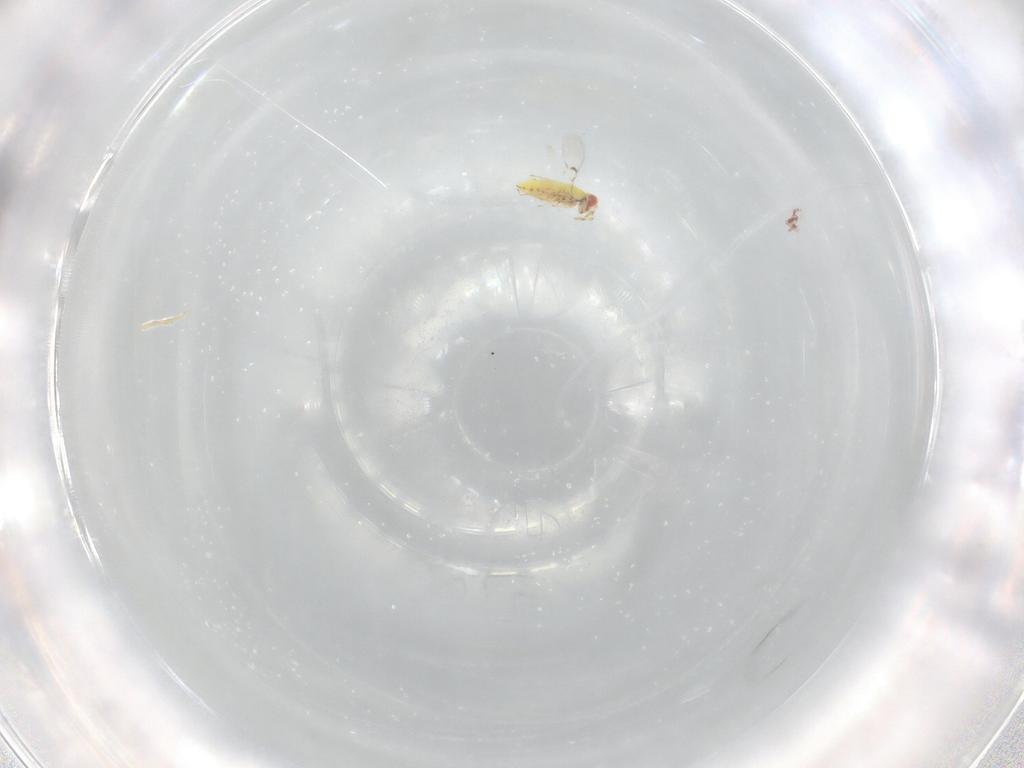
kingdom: Animalia
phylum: Arthropoda
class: Insecta
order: Hymenoptera
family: Trichogrammatidae
